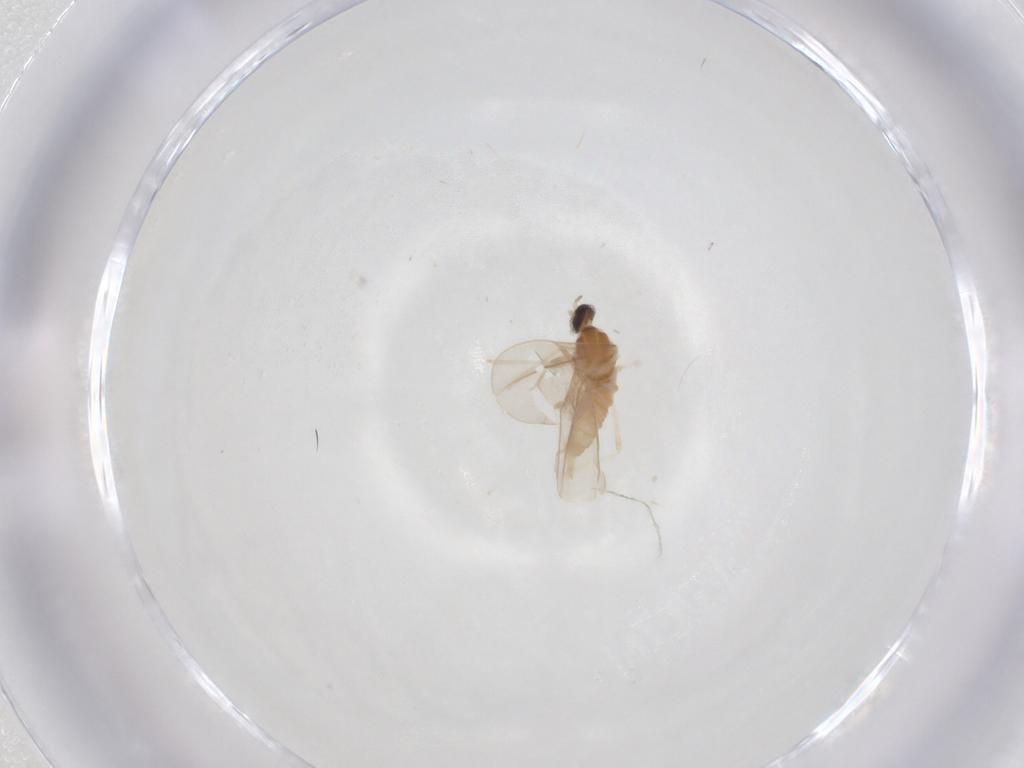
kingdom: Animalia
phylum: Arthropoda
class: Insecta
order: Diptera
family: Cecidomyiidae
